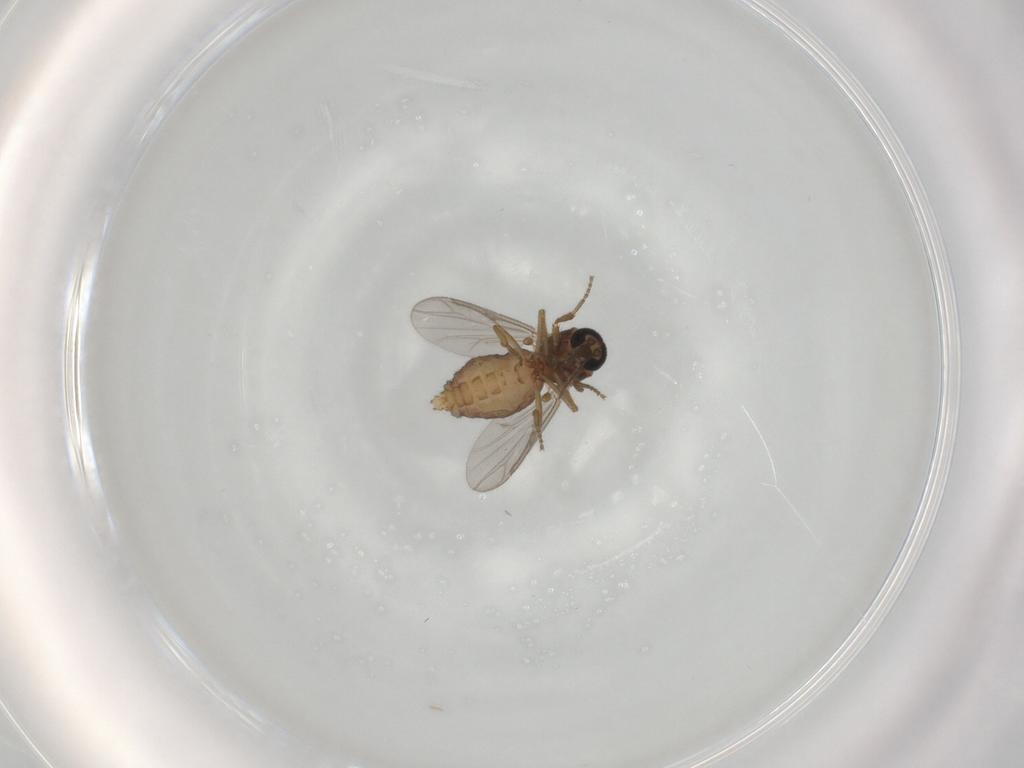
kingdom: Animalia
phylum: Arthropoda
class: Insecta
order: Diptera
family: Ceratopogonidae
